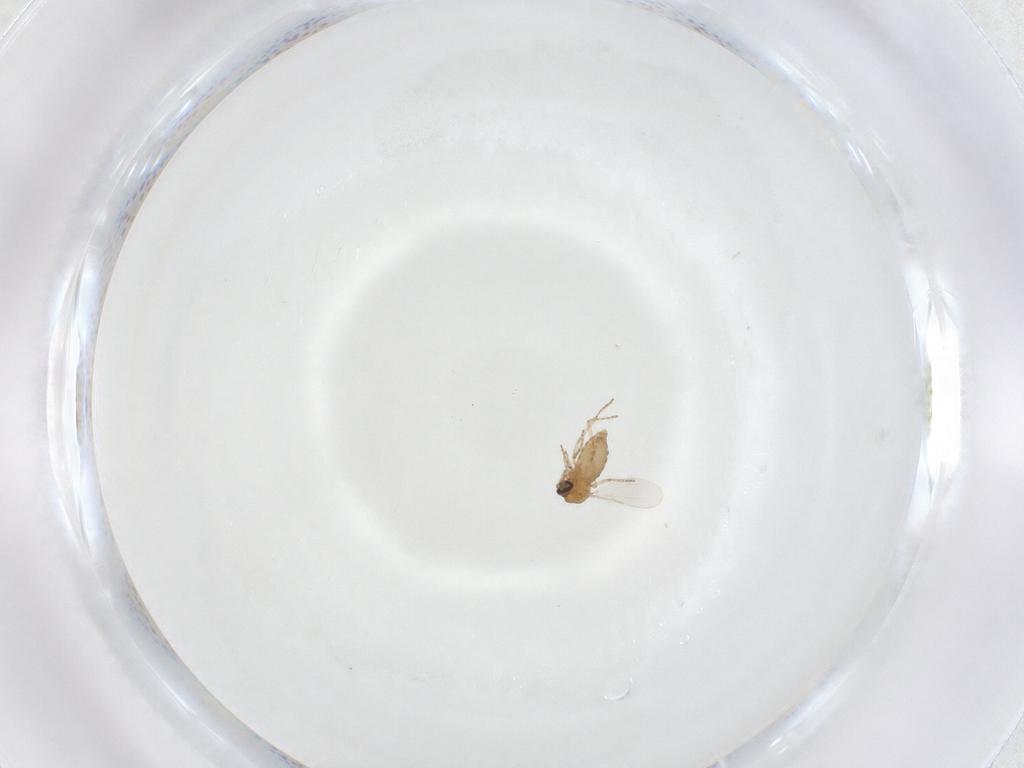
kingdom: Animalia
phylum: Arthropoda
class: Insecta
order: Diptera
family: Ceratopogonidae
